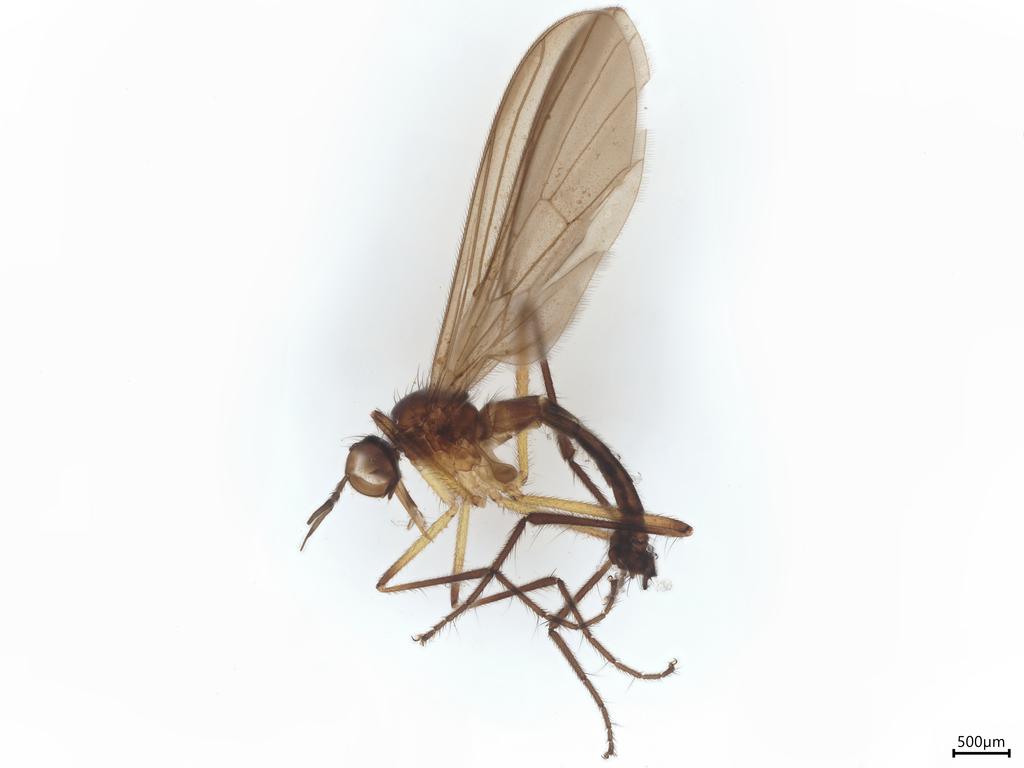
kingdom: Animalia
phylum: Arthropoda
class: Insecta
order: Diptera
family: Empididae
